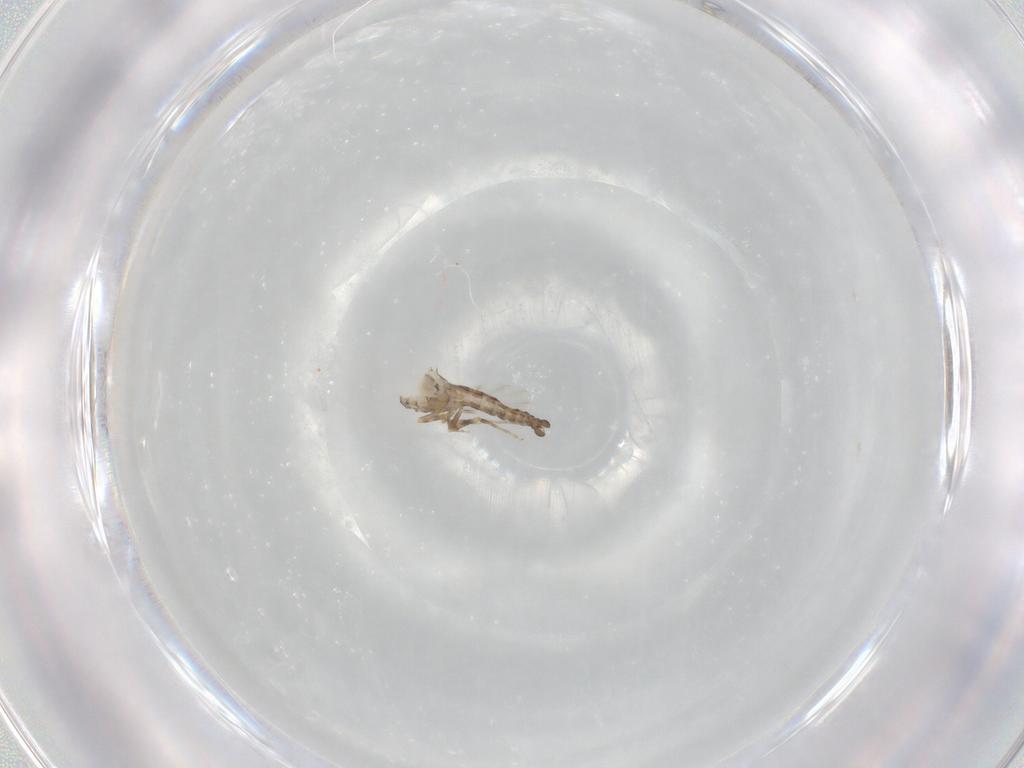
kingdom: Animalia
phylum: Arthropoda
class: Insecta
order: Diptera
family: Ceratopogonidae
